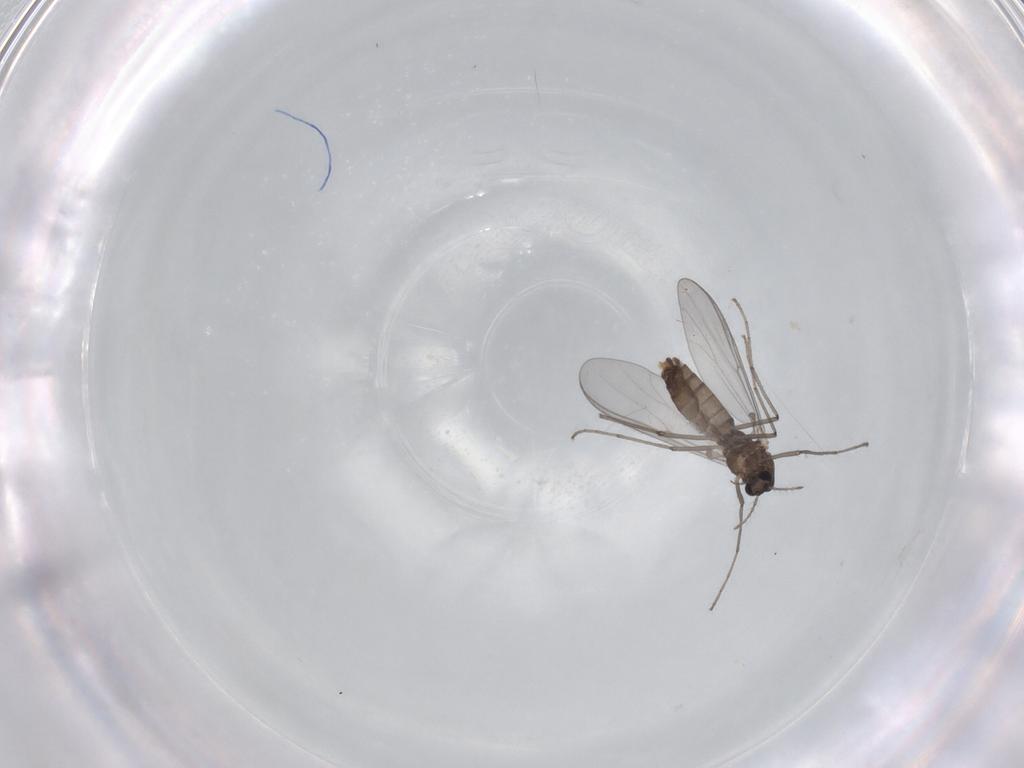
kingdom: Animalia
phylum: Arthropoda
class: Insecta
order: Diptera
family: Chironomidae
